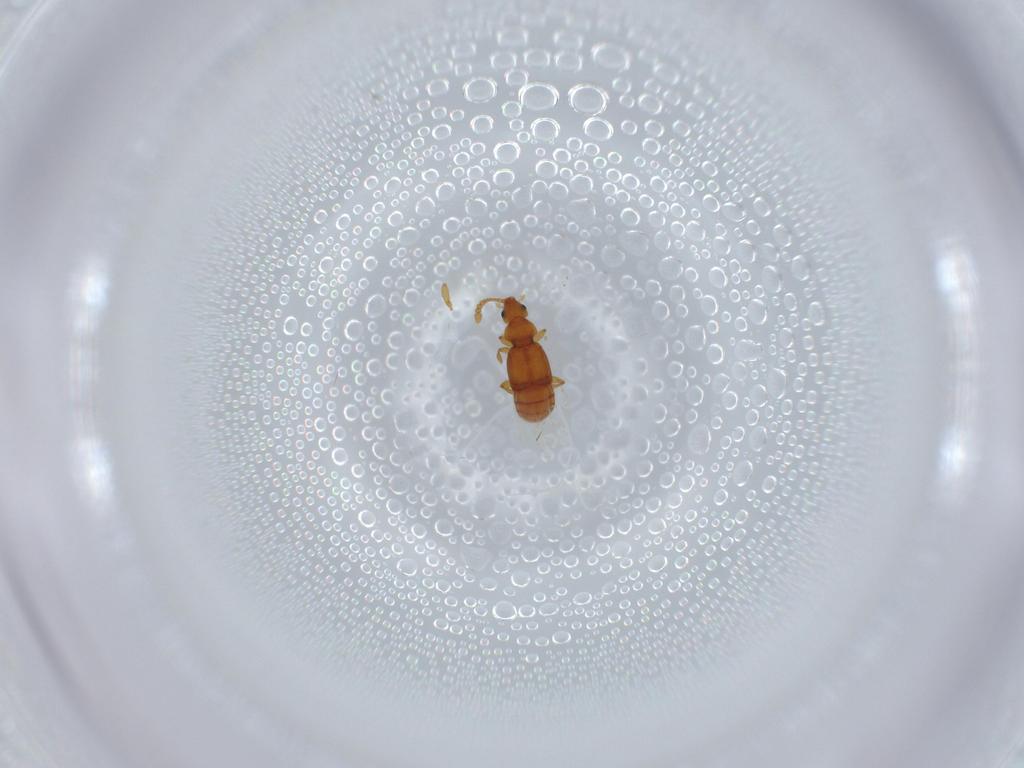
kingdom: Animalia
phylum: Arthropoda
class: Insecta
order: Coleoptera
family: Staphylinidae
